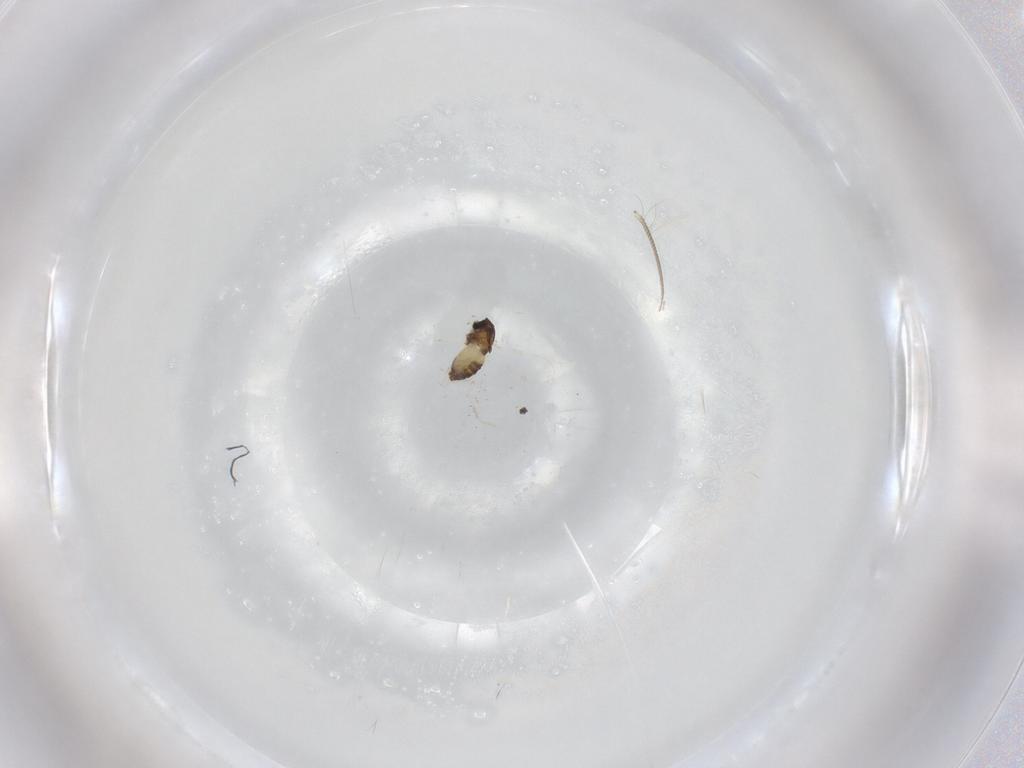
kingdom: Animalia
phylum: Arthropoda
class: Insecta
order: Diptera
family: Chironomidae
